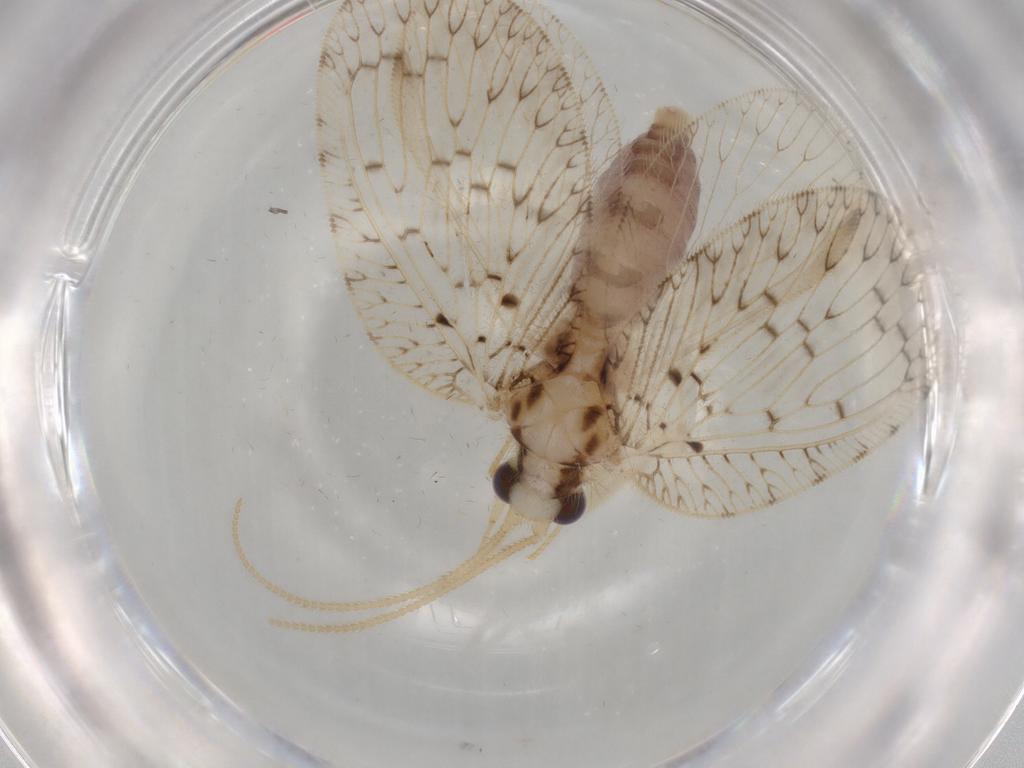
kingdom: Animalia
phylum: Arthropoda
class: Insecta
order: Neuroptera
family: Hemerobiidae
